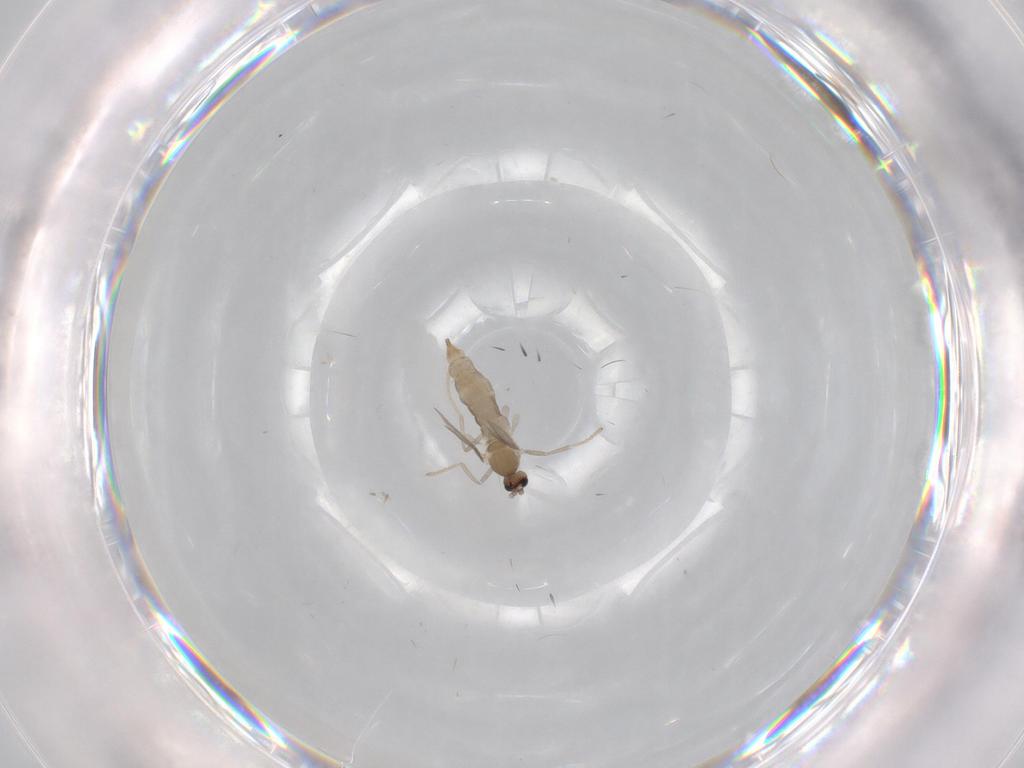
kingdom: Animalia
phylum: Arthropoda
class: Insecta
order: Diptera
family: Cecidomyiidae
